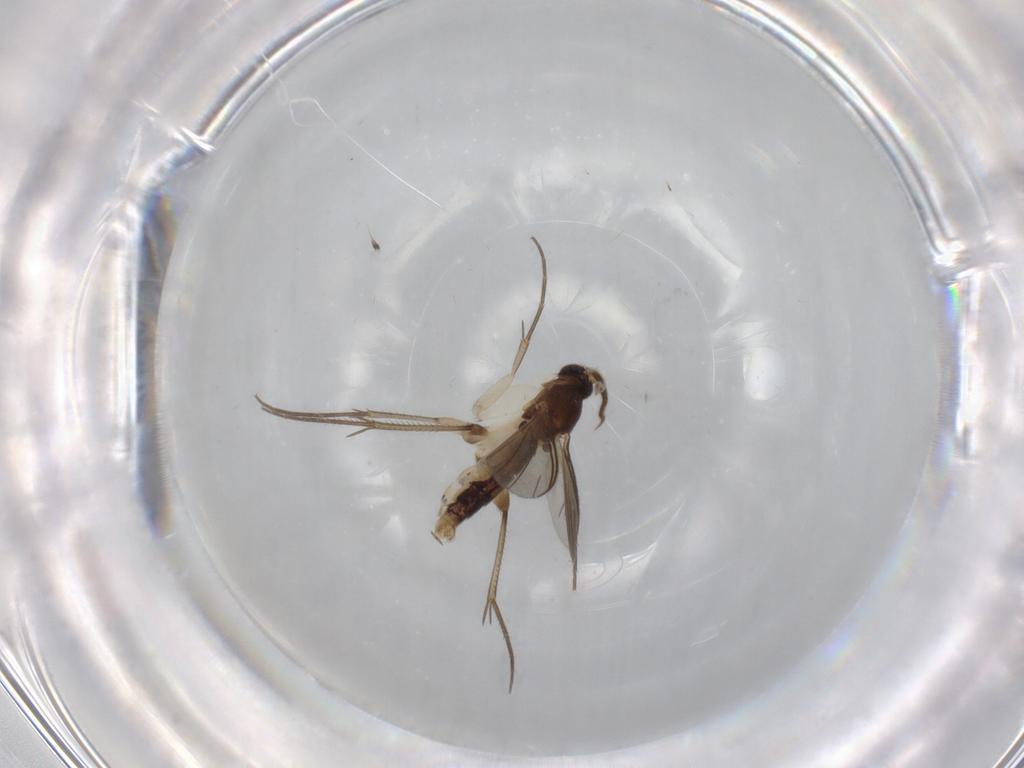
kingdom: Animalia
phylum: Arthropoda
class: Insecta
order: Diptera
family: Mycetophilidae
